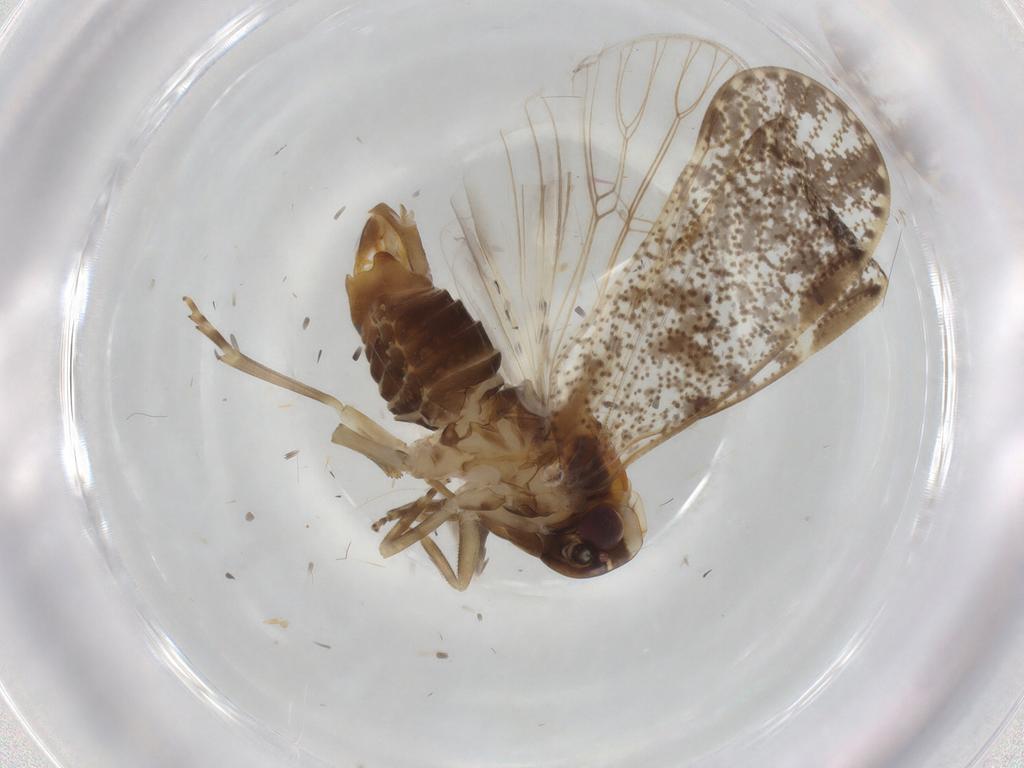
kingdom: Animalia
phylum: Arthropoda
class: Insecta
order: Hemiptera
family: Cixiidae
